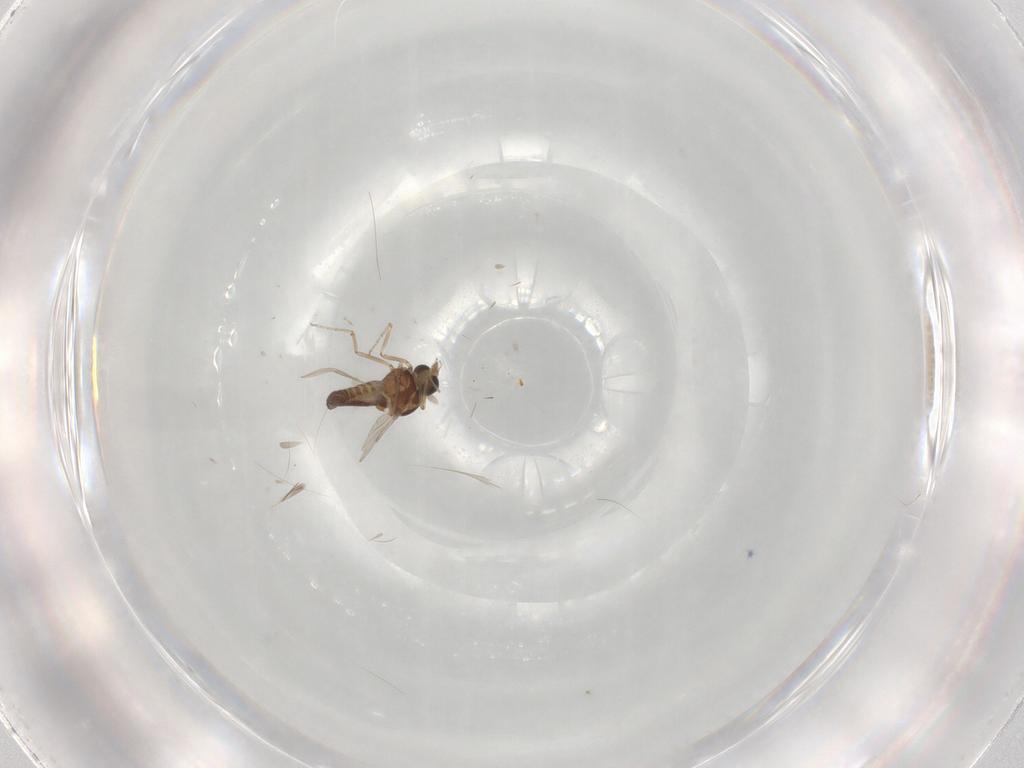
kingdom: Animalia
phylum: Arthropoda
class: Insecta
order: Diptera
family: Ceratopogonidae
